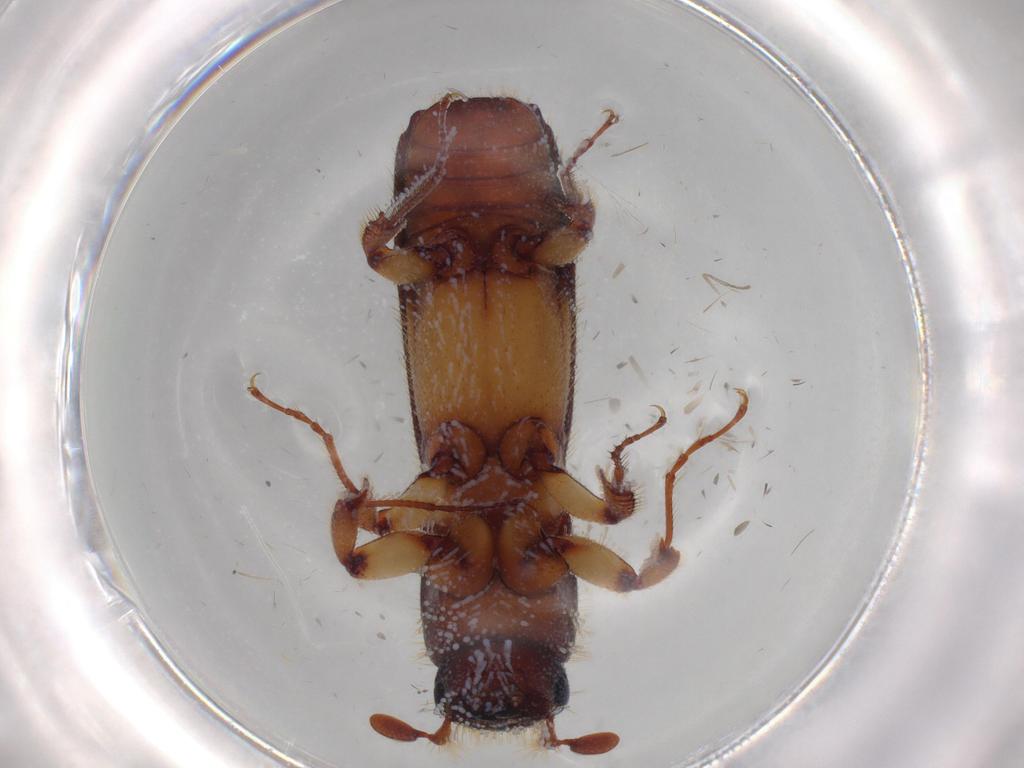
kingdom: Animalia
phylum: Arthropoda
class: Insecta
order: Coleoptera
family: Curculionidae
